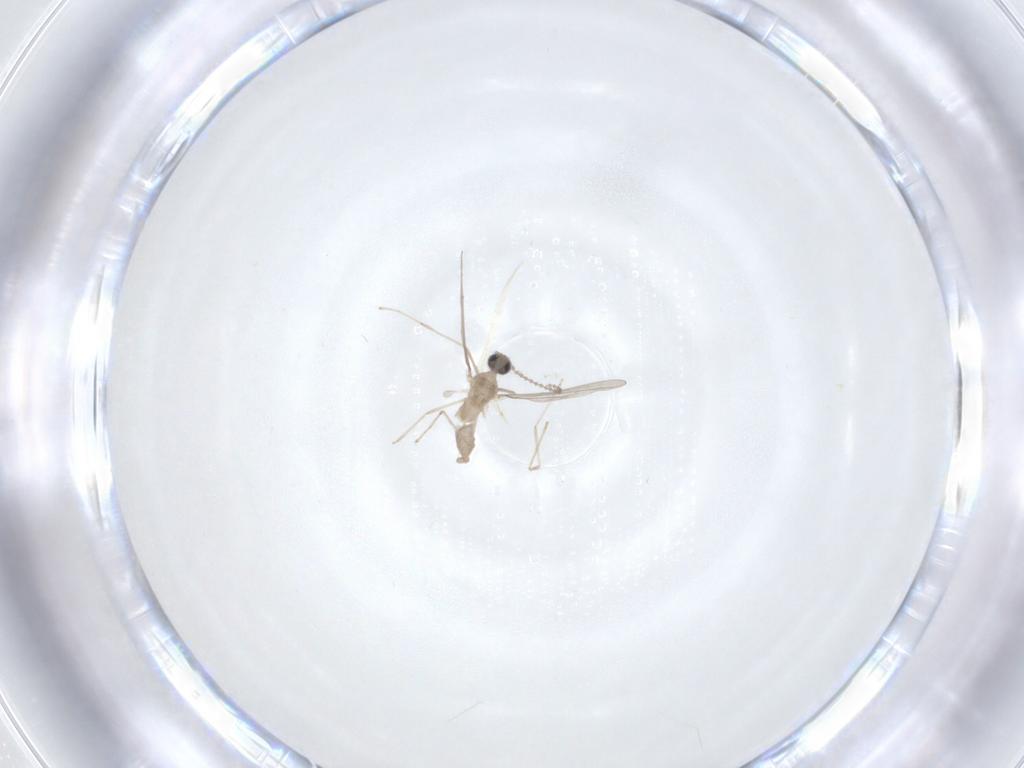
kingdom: Animalia
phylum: Arthropoda
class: Insecta
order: Diptera
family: Cecidomyiidae
